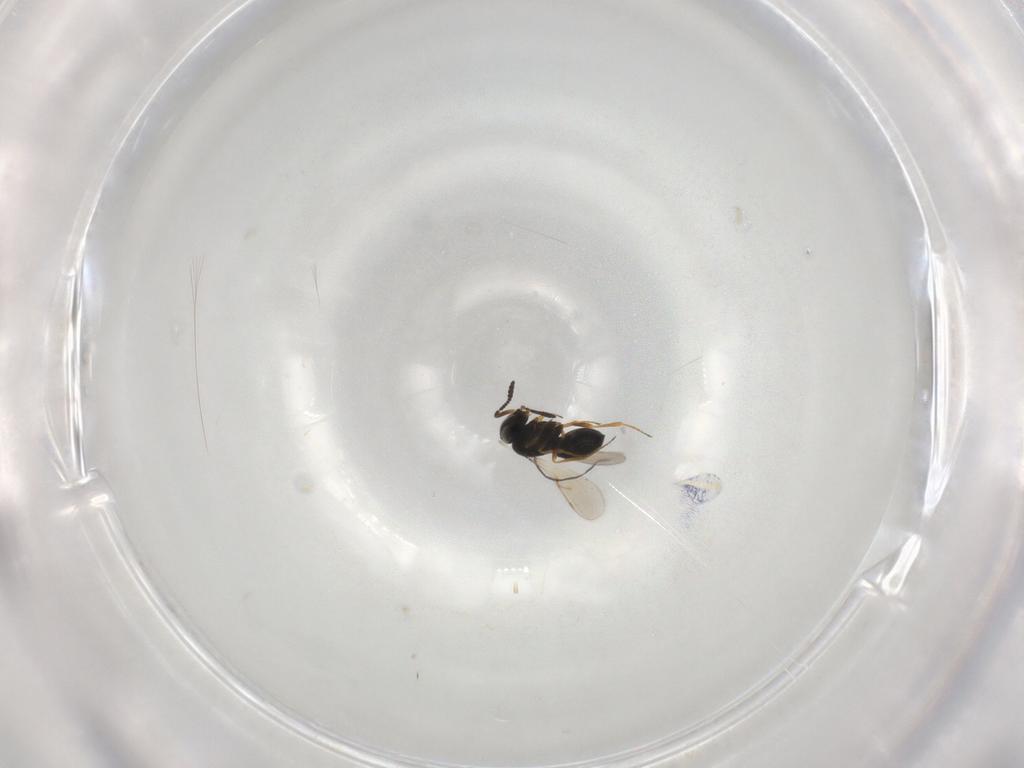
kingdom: Animalia
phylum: Arthropoda
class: Insecta
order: Hymenoptera
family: Scelionidae
